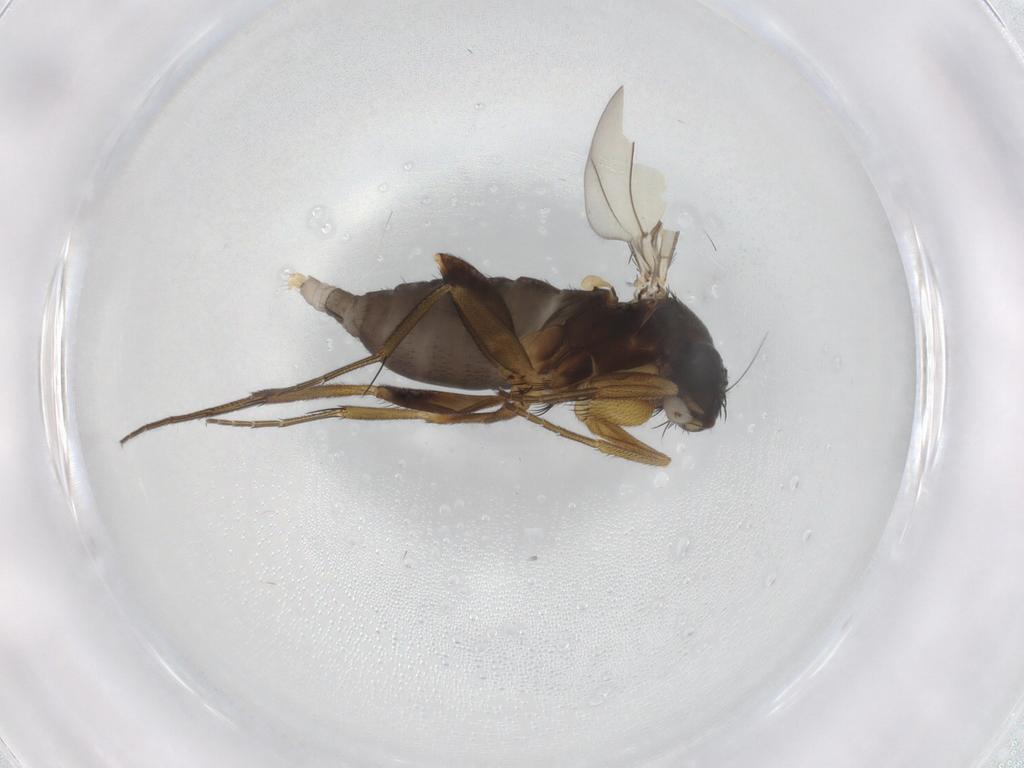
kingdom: Animalia
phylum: Arthropoda
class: Insecta
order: Diptera
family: Phoridae
